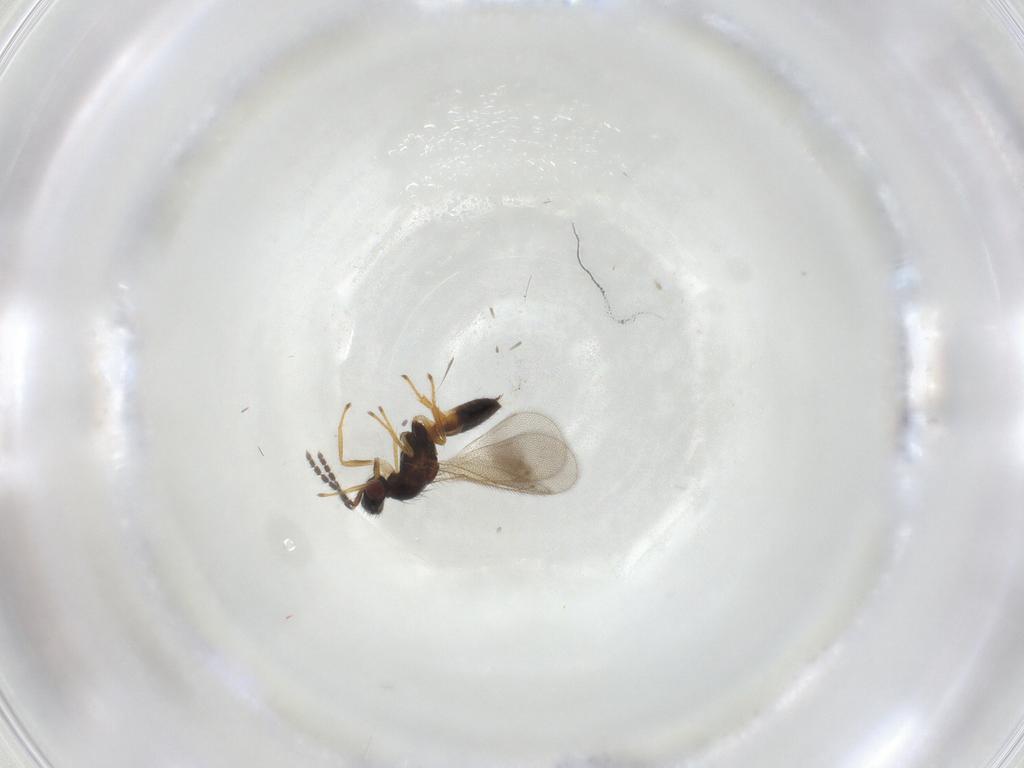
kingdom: Animalia
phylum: Arthropoda
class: Insecta
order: Hymenoptera
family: Eulophidae
